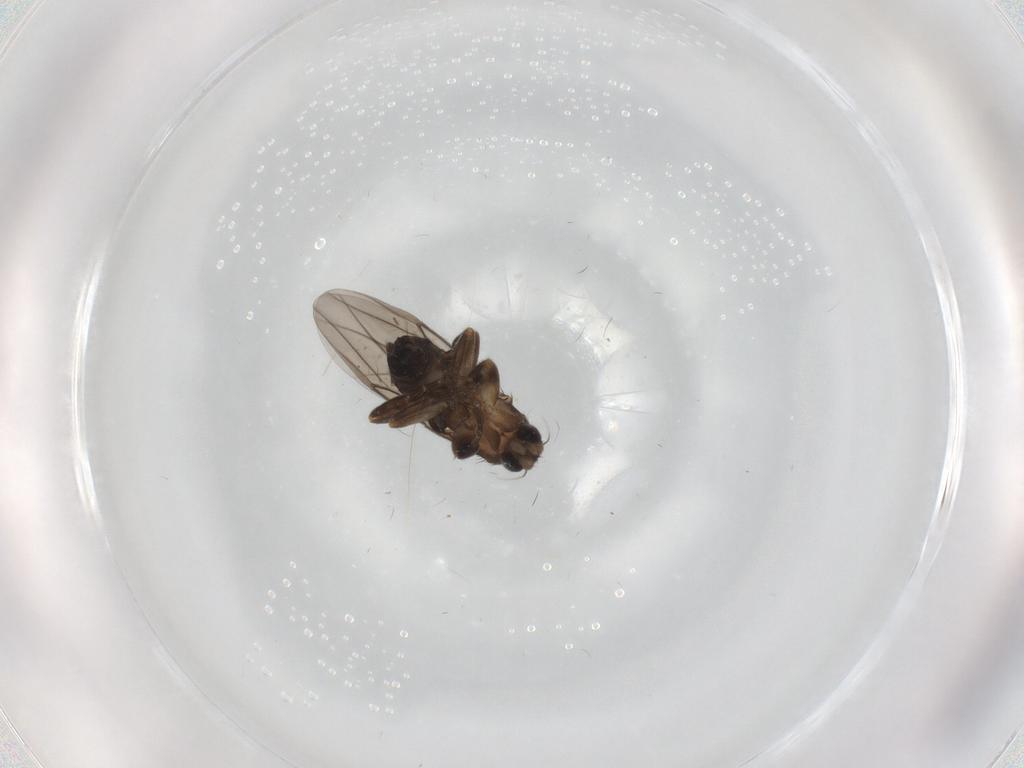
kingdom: Animalia
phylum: Arthropoda
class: Insecta
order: Diptera
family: Phoridae
